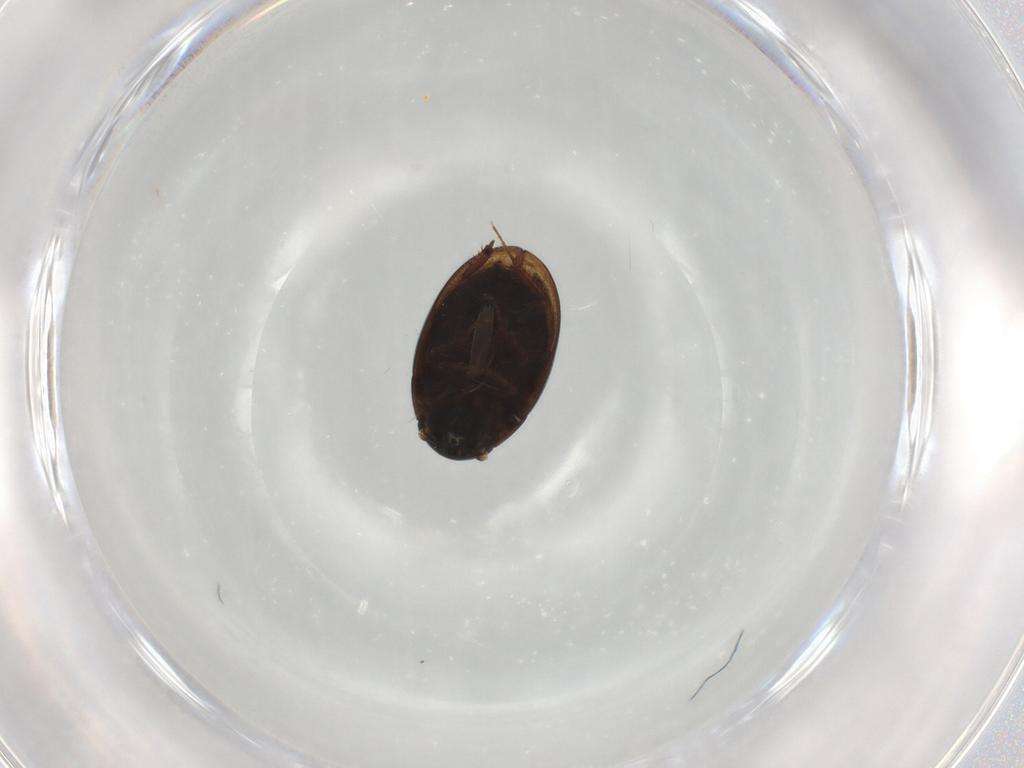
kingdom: Animalia
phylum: Arthropoda
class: Insecta
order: Coleoptera
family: Hydrophilidae
